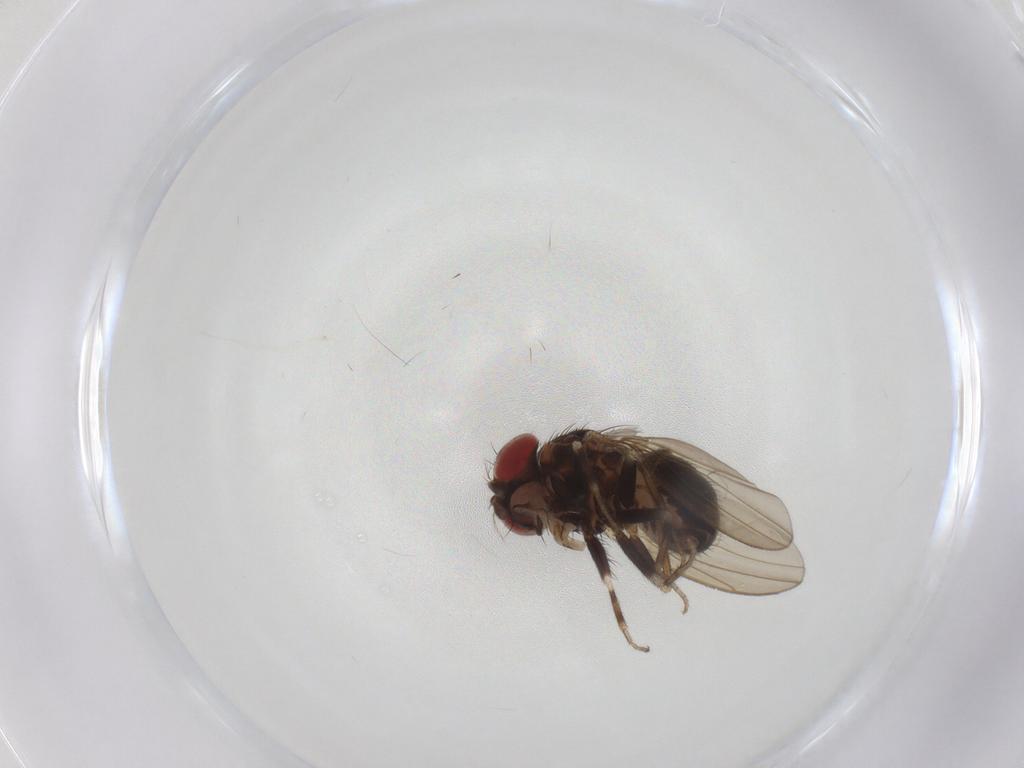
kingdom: Animalia
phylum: Arthropoda
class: Insecta
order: Diptera
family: Drosophilidae
